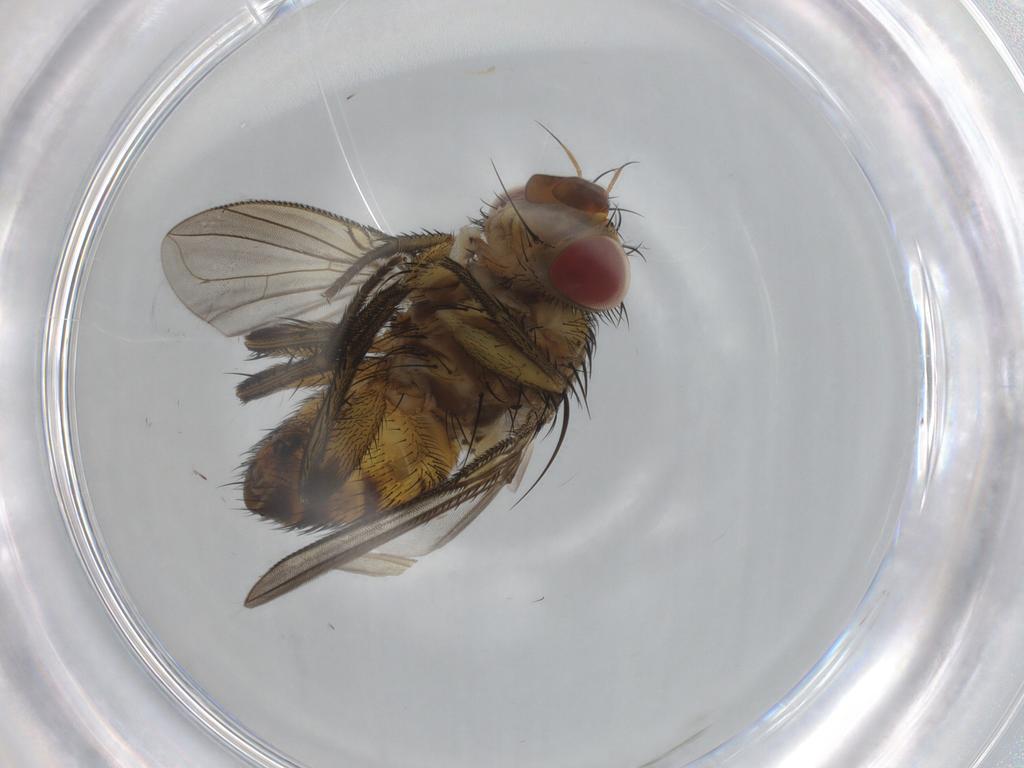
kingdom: Animalia
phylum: Arthropoda
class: Insecta
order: Diptera
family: Tachinidae
